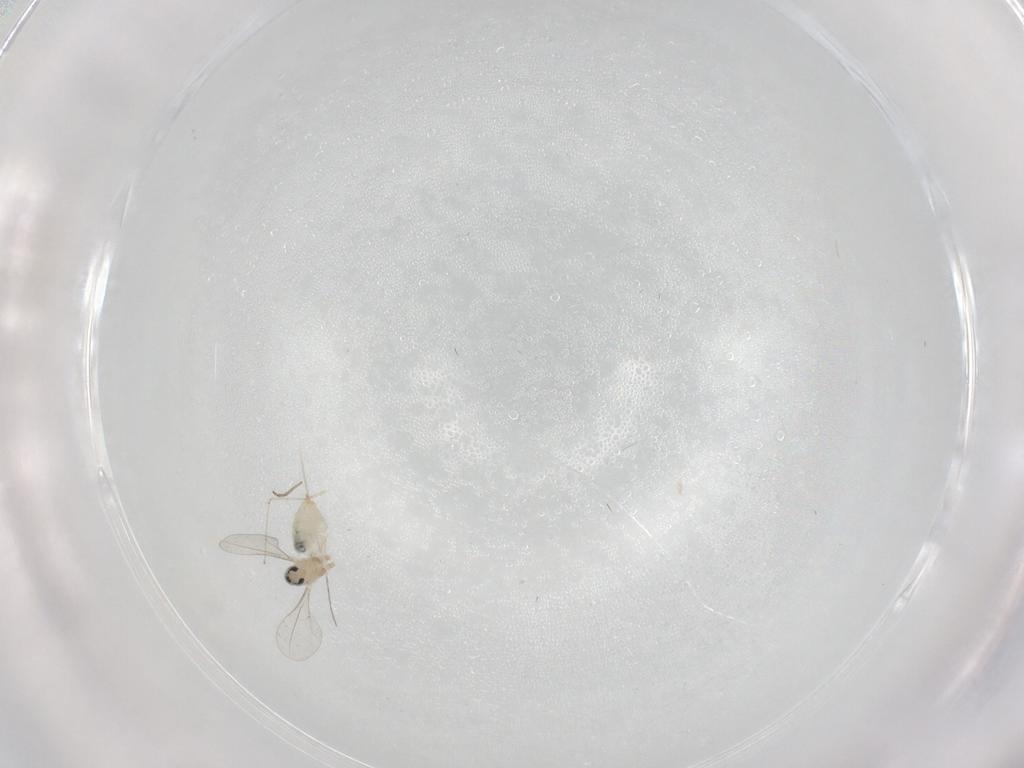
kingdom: Animalia
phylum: Arthropoda
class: Insecta
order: Diptera
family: Cecidomyiidae
